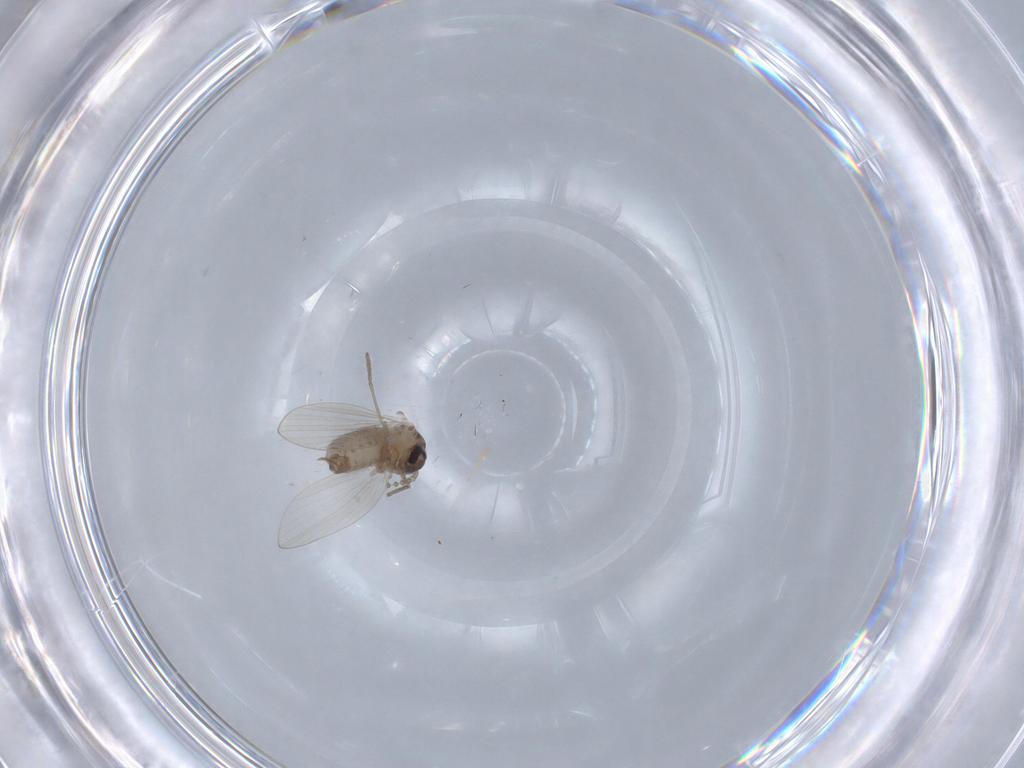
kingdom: Animalia
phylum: Arthropoda
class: Insecta
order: Diptera
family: Psychodidae
